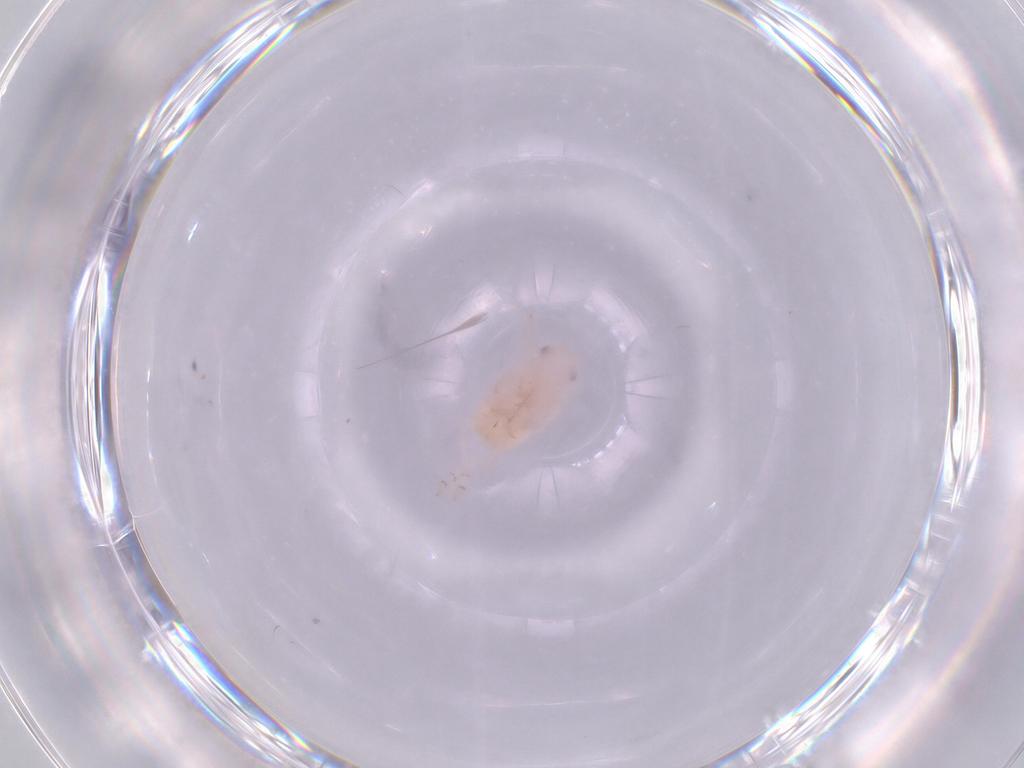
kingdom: Animalia
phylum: Arthropoda
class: Insecta
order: Hemiptera
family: Flatidae
